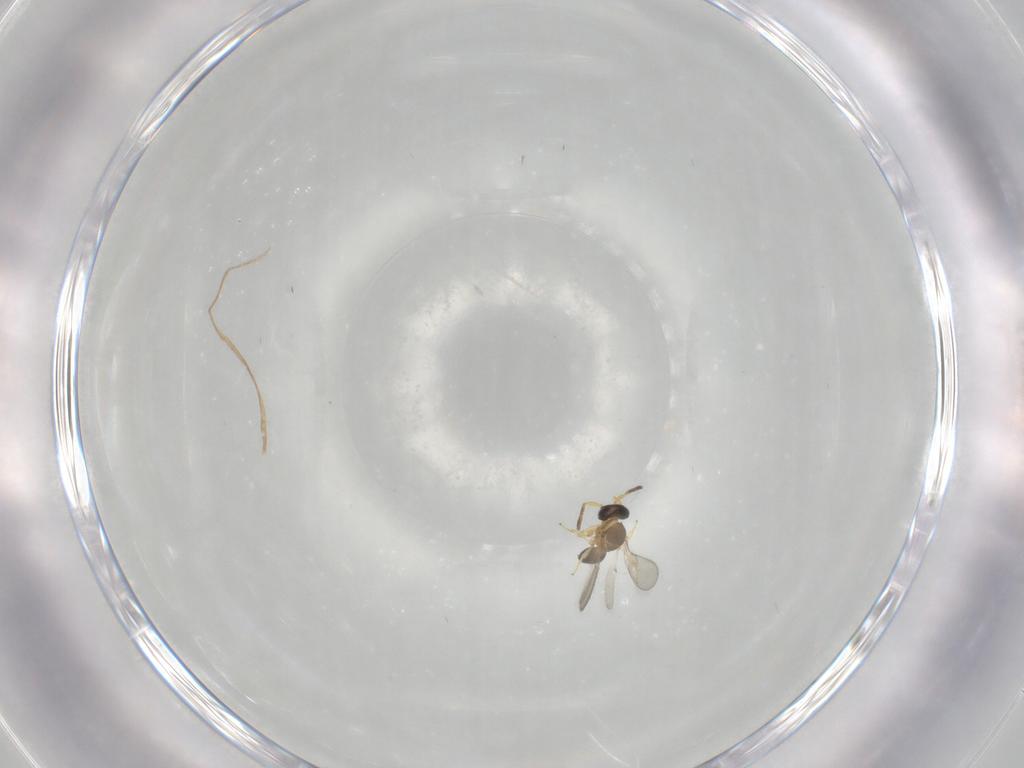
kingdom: Animalia
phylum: Arthropoda
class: Insecta
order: Hymenoptera
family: Scelionidae
